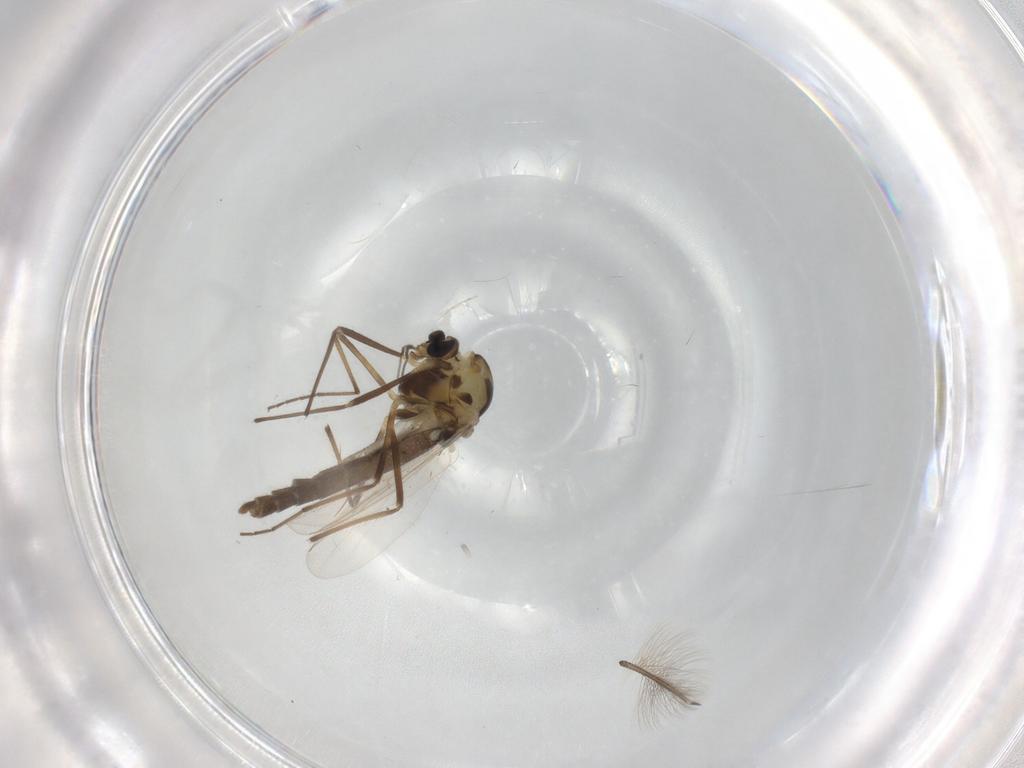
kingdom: Animalia
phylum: Arthropoda
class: Insecta
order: Diptera
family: Chironomidae
